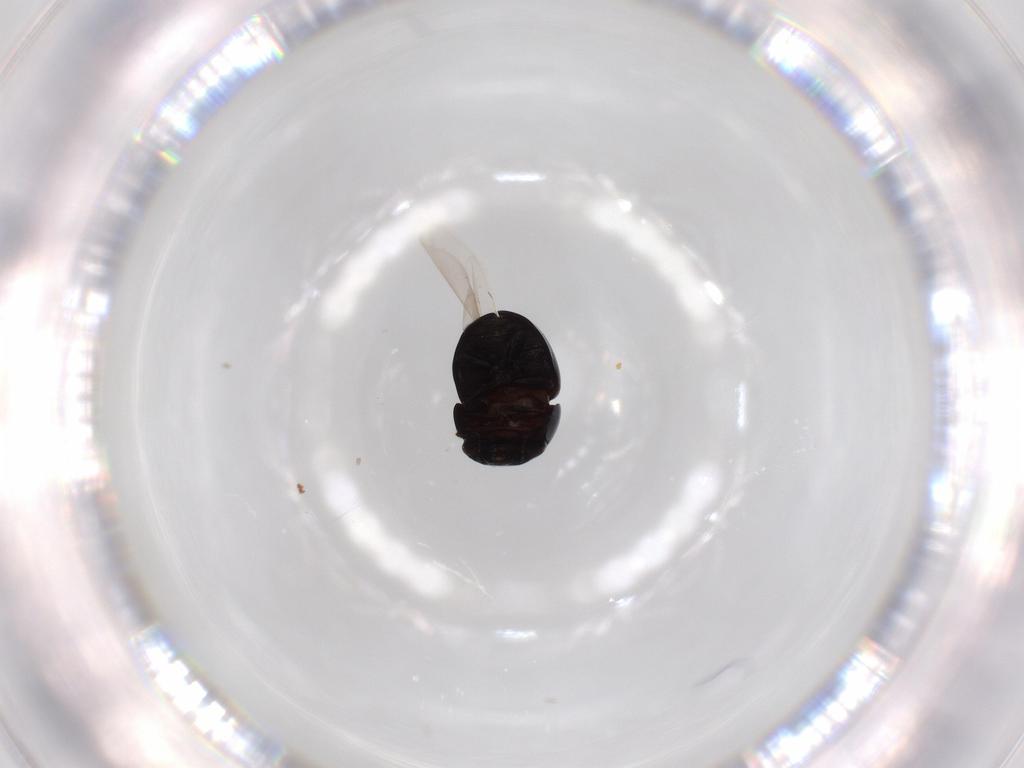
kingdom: Animalia
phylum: Arthropoda
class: Insecta
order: Coleoptera
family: Cybocephalidae
